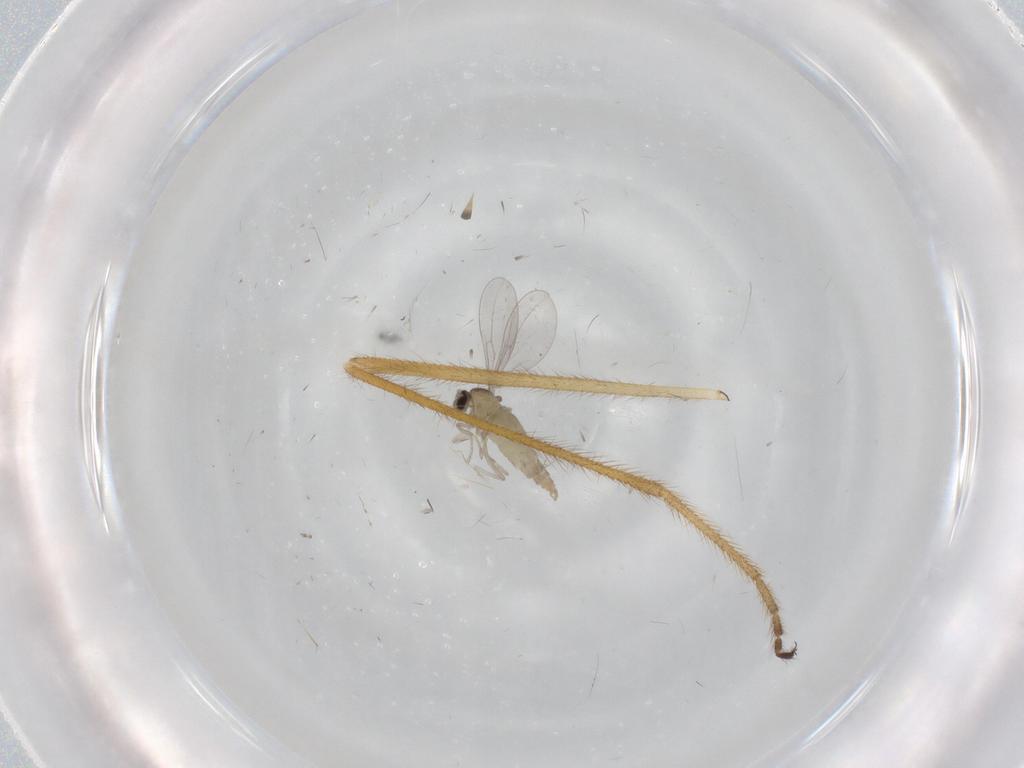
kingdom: Animalia
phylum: Arthropoda
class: Insecta
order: Diptera
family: Cecidomyiidae
